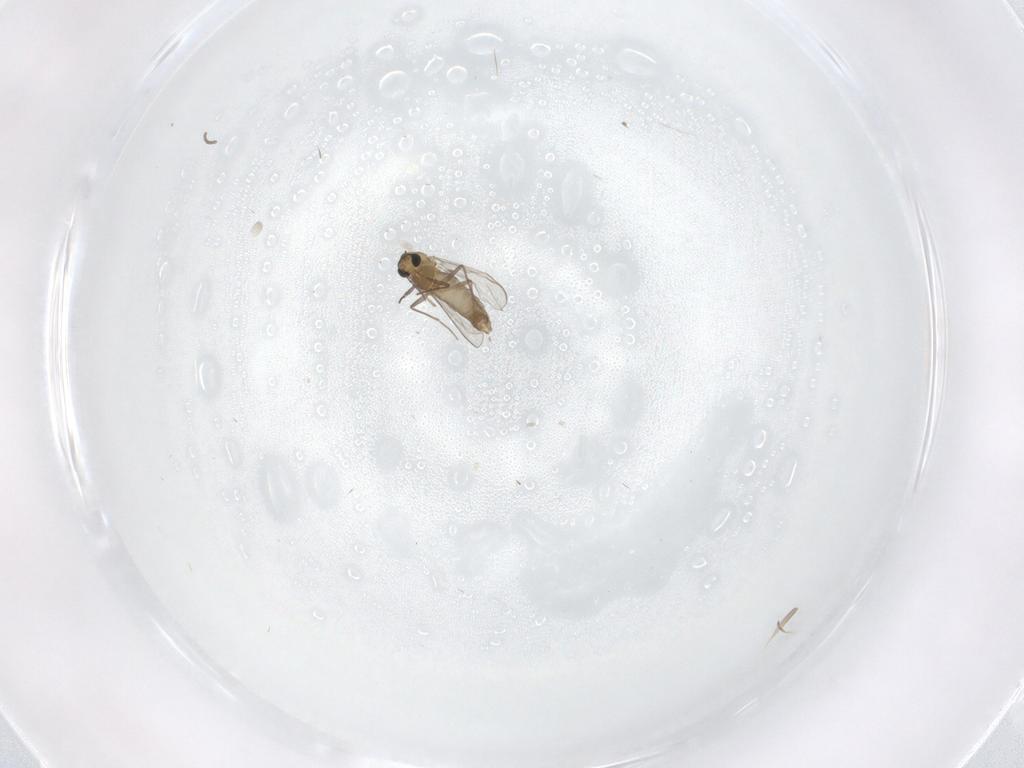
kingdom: Animalia
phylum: Arthropoda
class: Insecta
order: Diptera
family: Chironomidae
